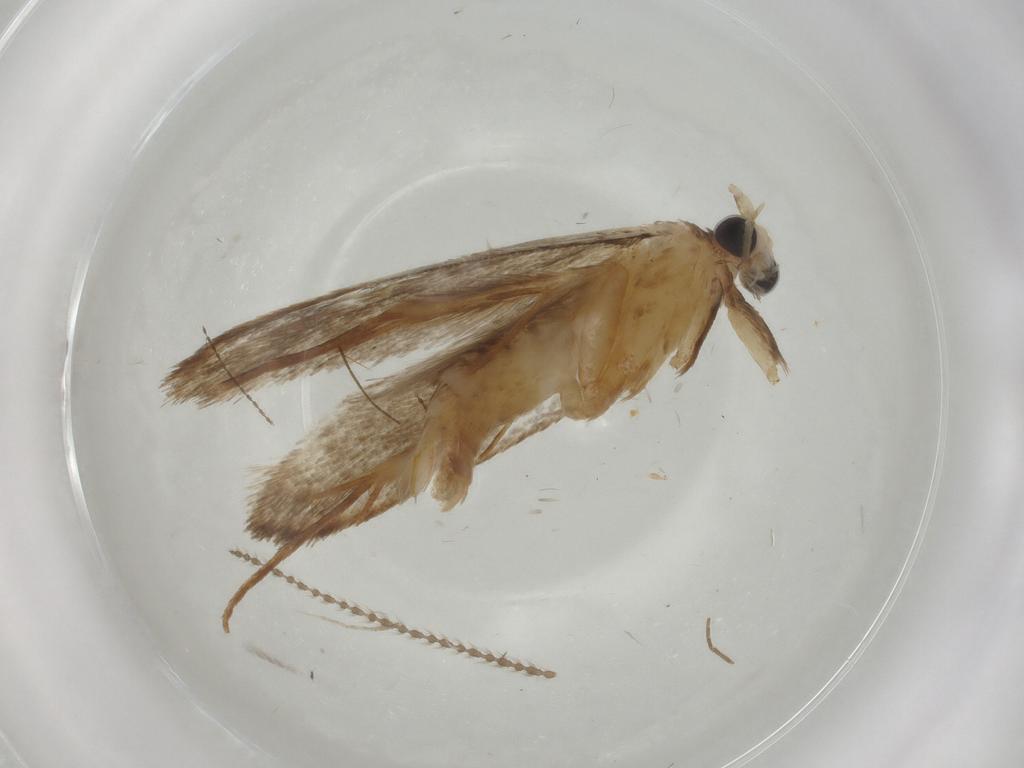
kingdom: Animalia
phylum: Arthropoda
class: Insecta
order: Lepidoptera
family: Tineidae
